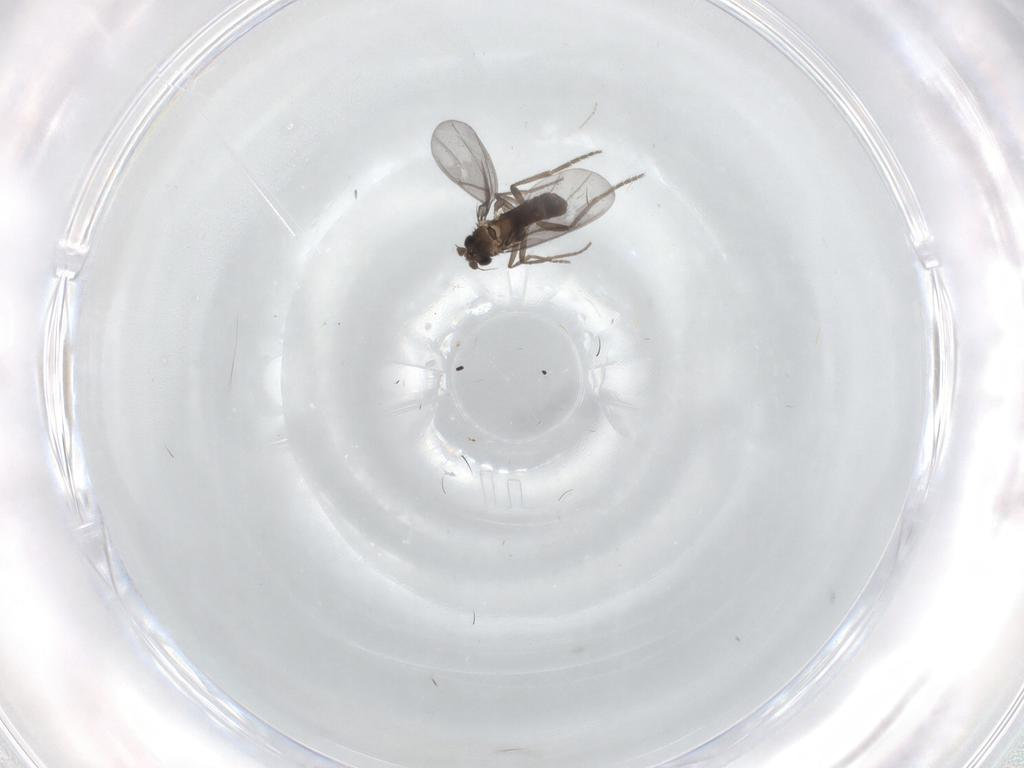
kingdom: Animalia
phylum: Arthropoda
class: Insecta
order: Diptera
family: Phoridae
